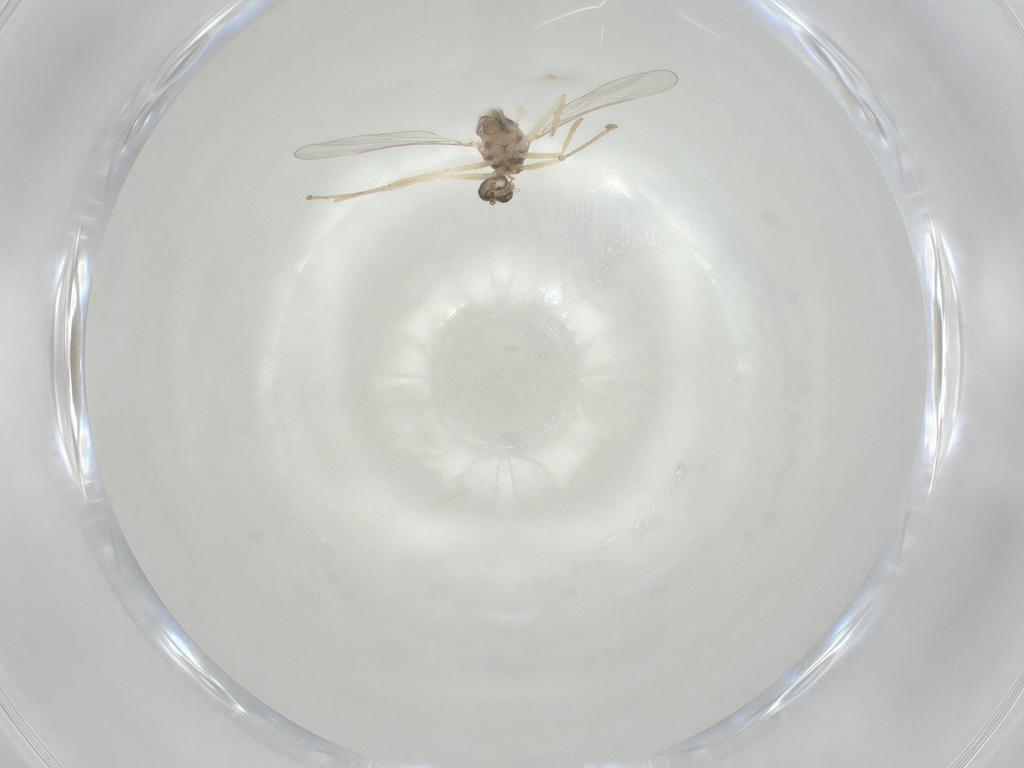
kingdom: Animalia
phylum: Arthropoda
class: Insecta
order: Diptera
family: Cecidomyiidae
